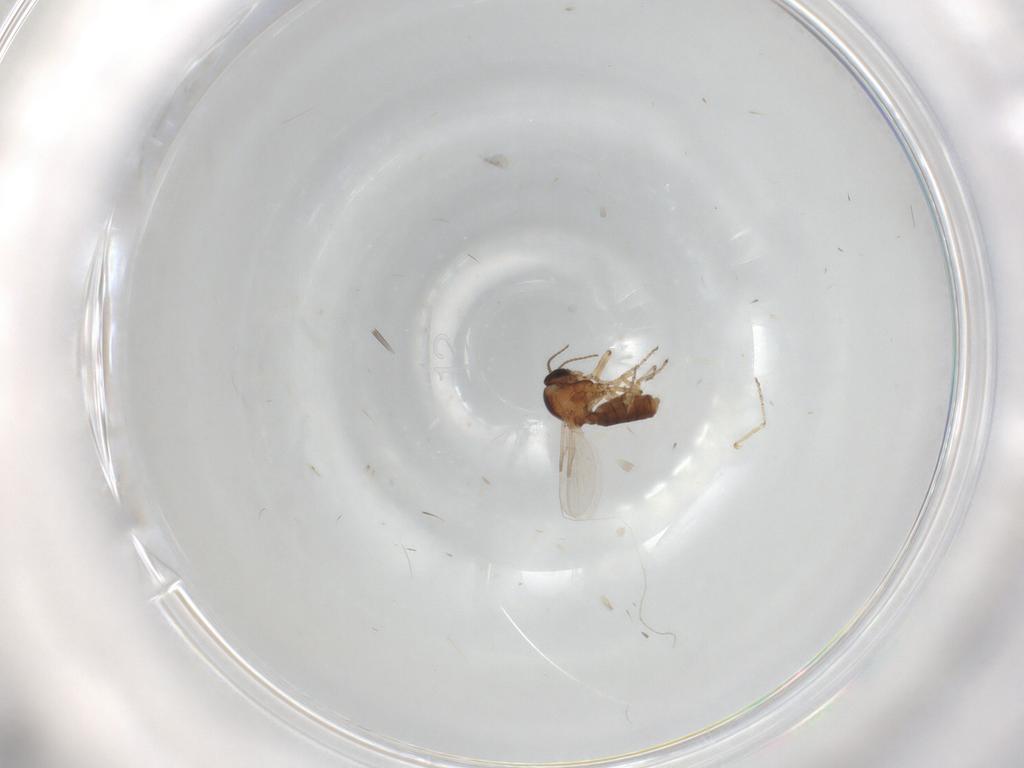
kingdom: Animalia
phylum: Arthropoda
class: Insecta
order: Diptera
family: Ceratopogonidae
